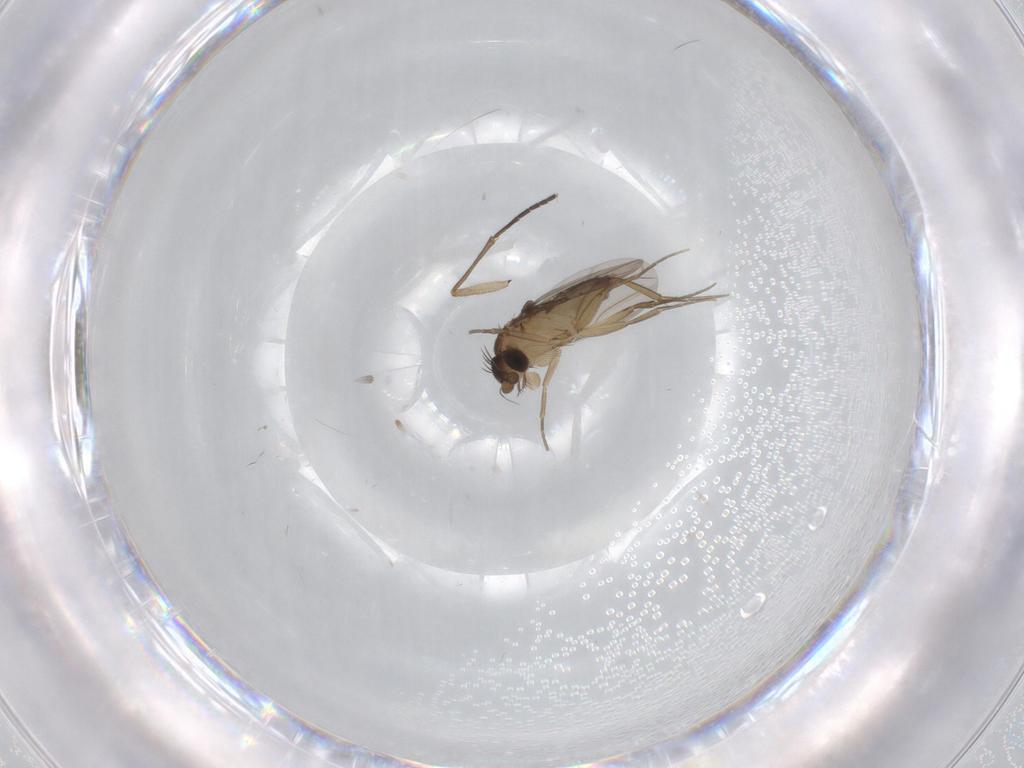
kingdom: Animalia
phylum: Arthropoda
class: Insecta
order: Diptera
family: Phoridae
